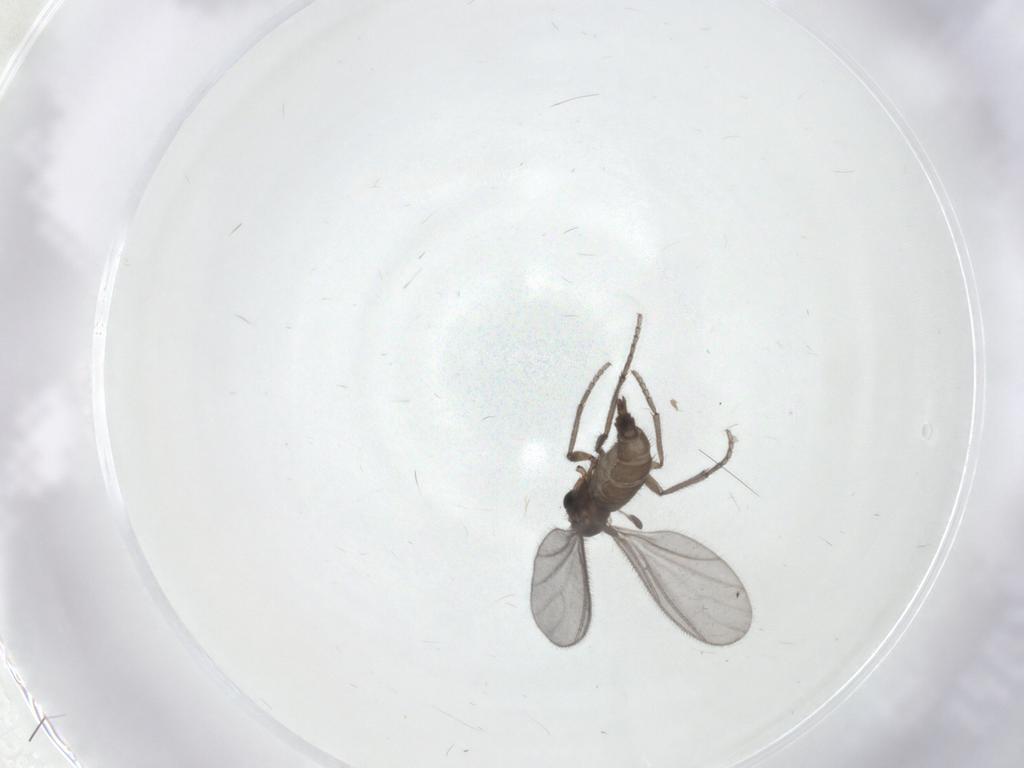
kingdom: Animalia
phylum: Arthropoda
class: Insecta
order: Diptera
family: Sciaridae
